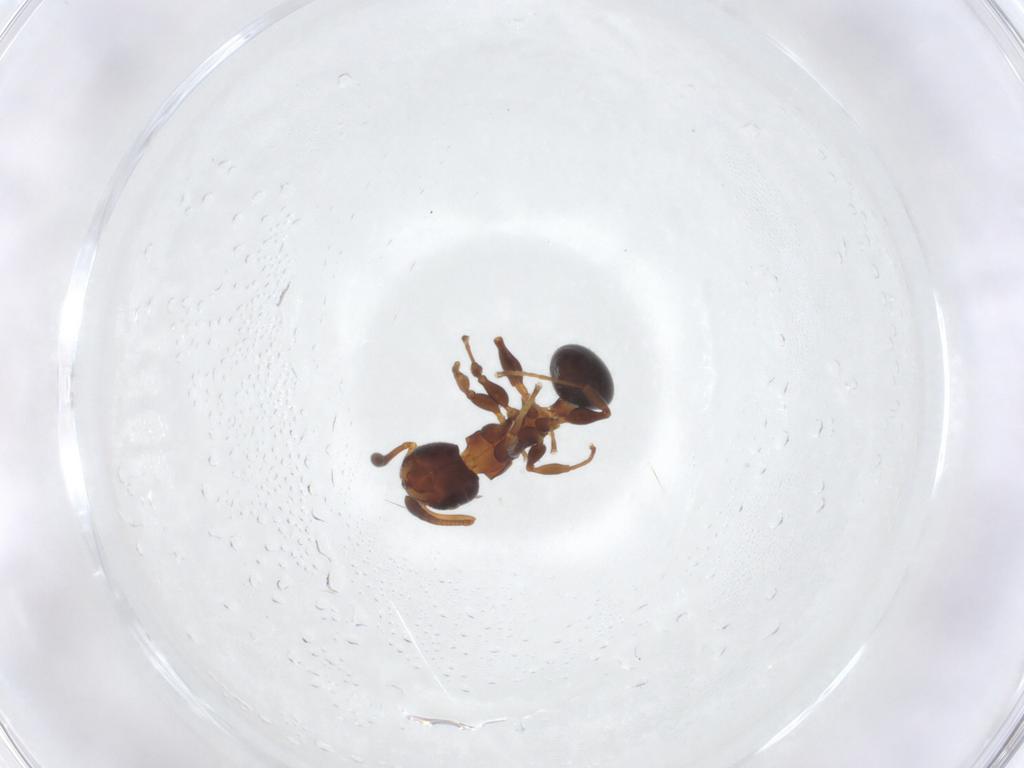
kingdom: Animalia
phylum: Arthropoda
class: Insecta
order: Hymenoptera
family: Formicidae
